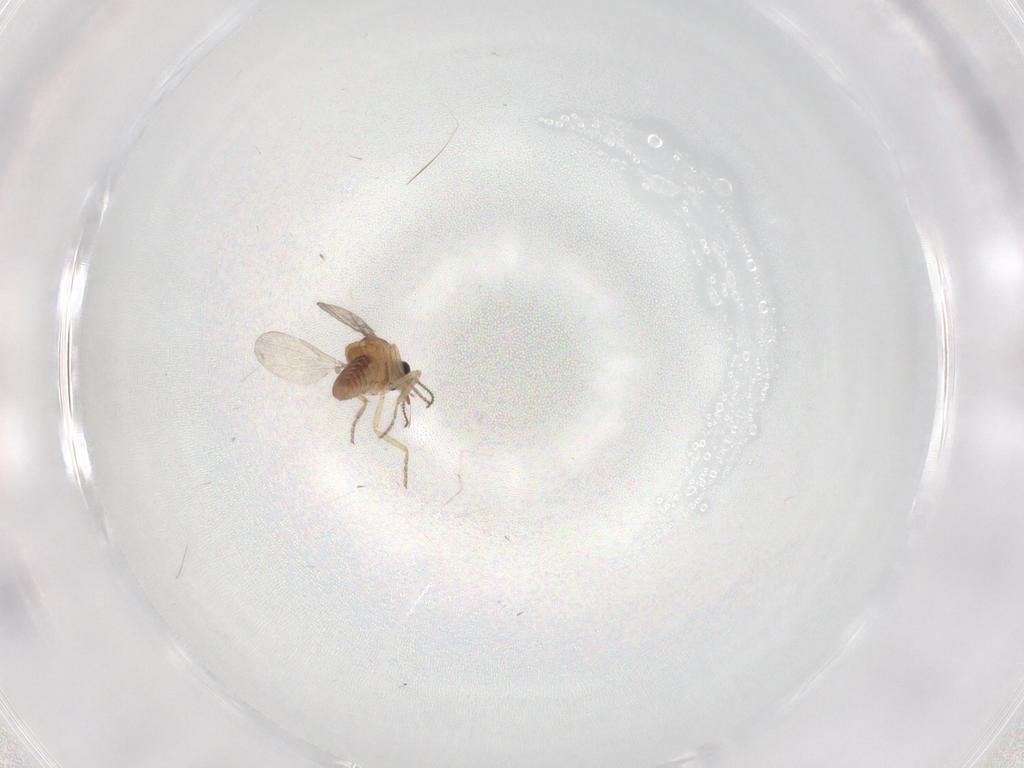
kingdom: Animalia
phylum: Arthropoda
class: Insecta
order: Diptera
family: Ceratopogonidae
